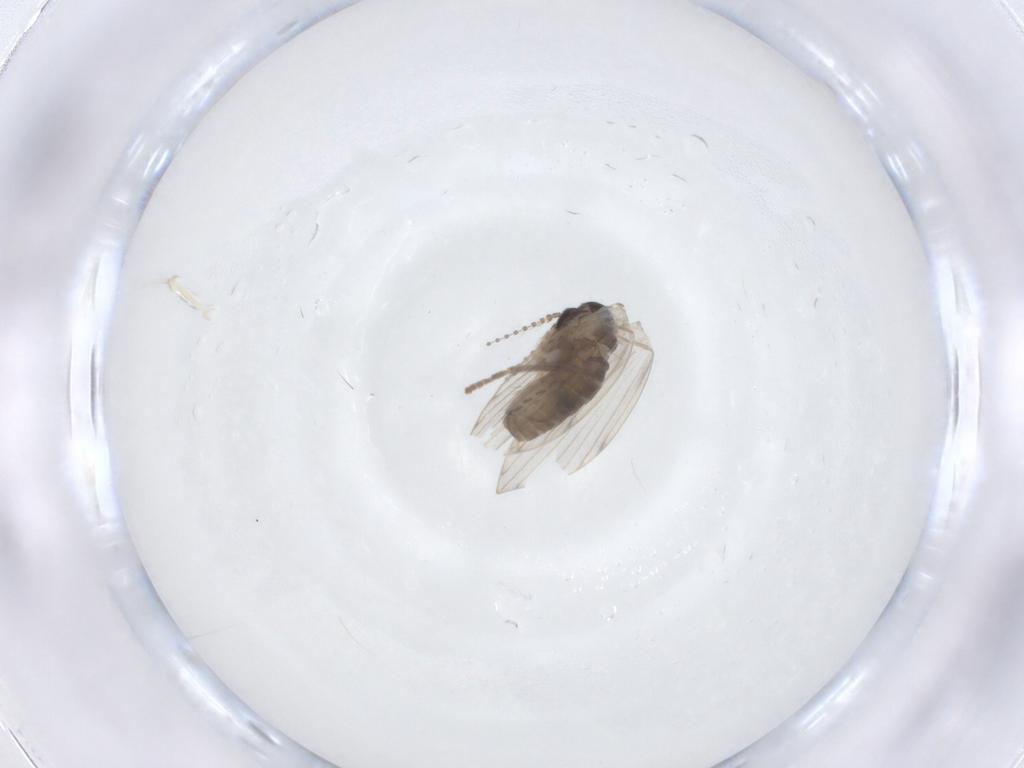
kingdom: Animalia
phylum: Arthropoda
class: Insecta
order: Diptera
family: Psychodidae
